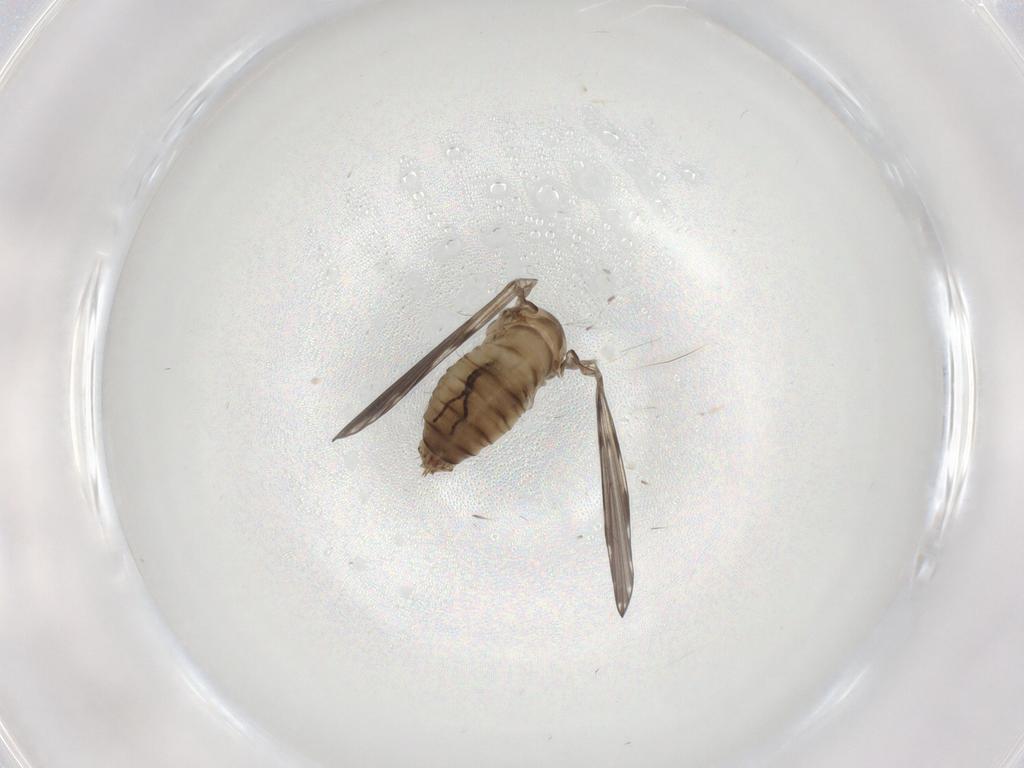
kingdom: Animalia
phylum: Arthropoda
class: Insecta
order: Diptera
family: Psychodidae
